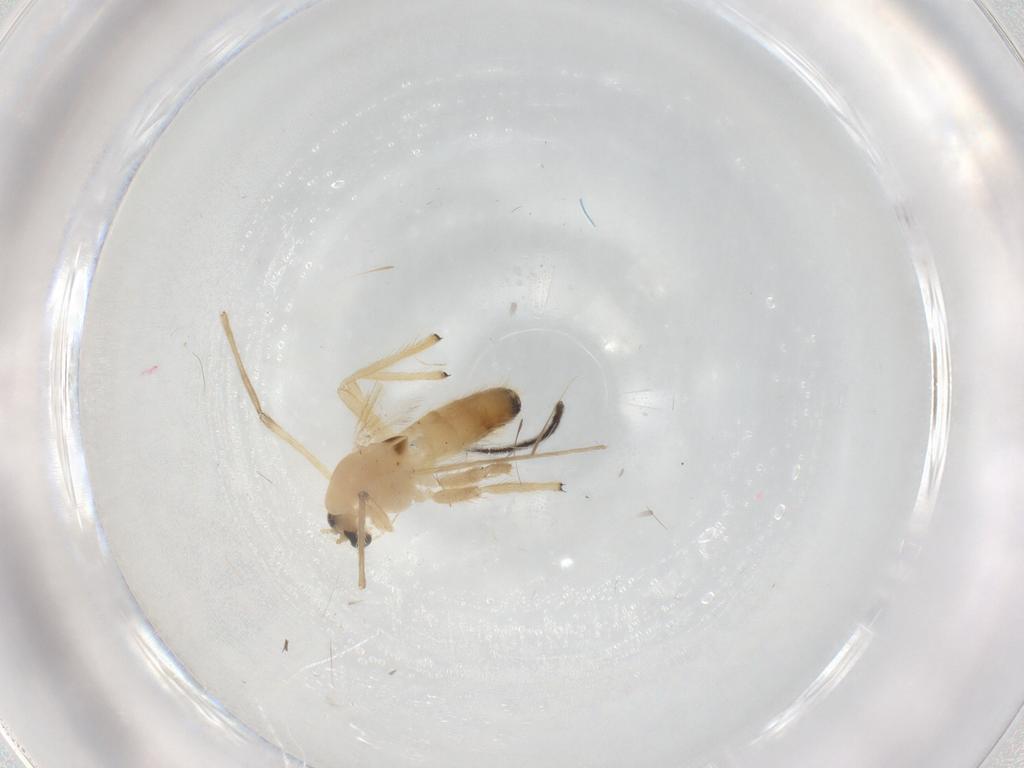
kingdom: Animalia
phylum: Arthropoda
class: Insecta
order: Diptera
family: Chironomidae
